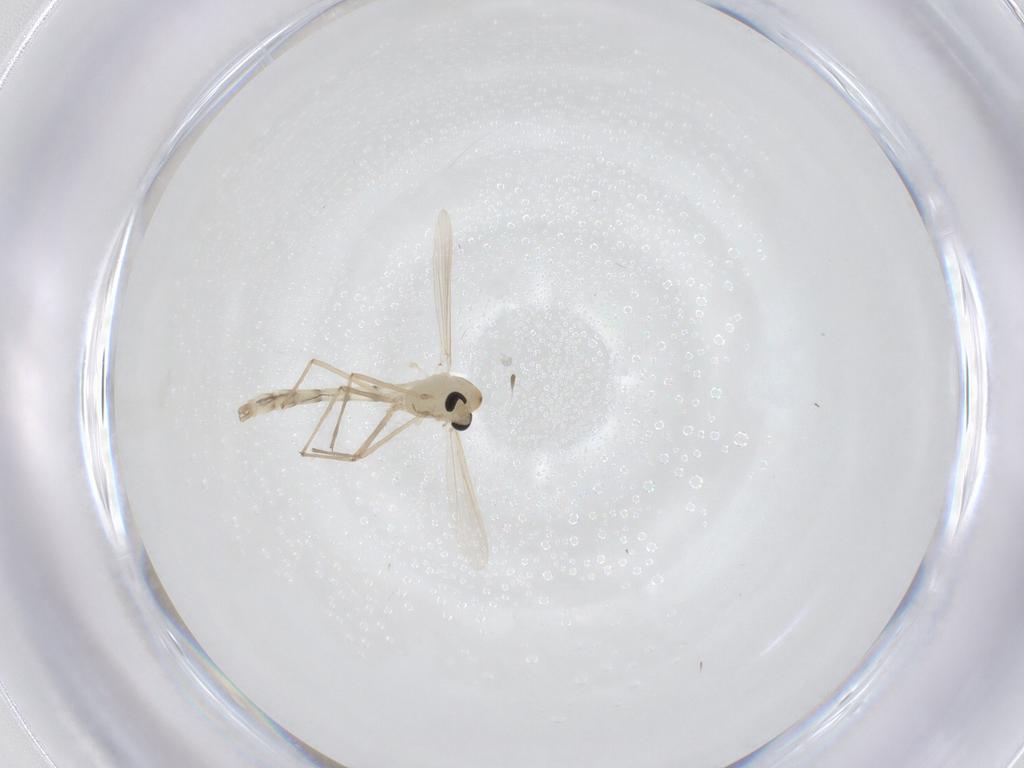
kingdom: Animalia
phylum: Arthropoda
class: Insecta
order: Diptera
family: Chironomidae
